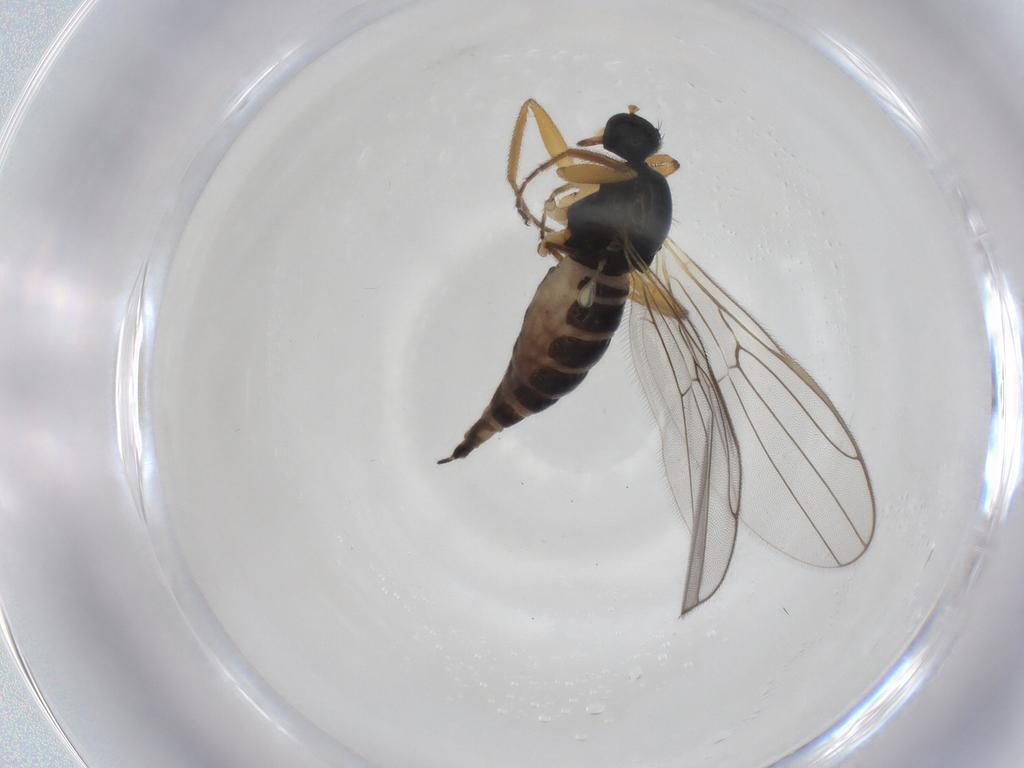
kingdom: Animalia
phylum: Arthropoda
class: Insecta
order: Diptera
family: Hybotidae
